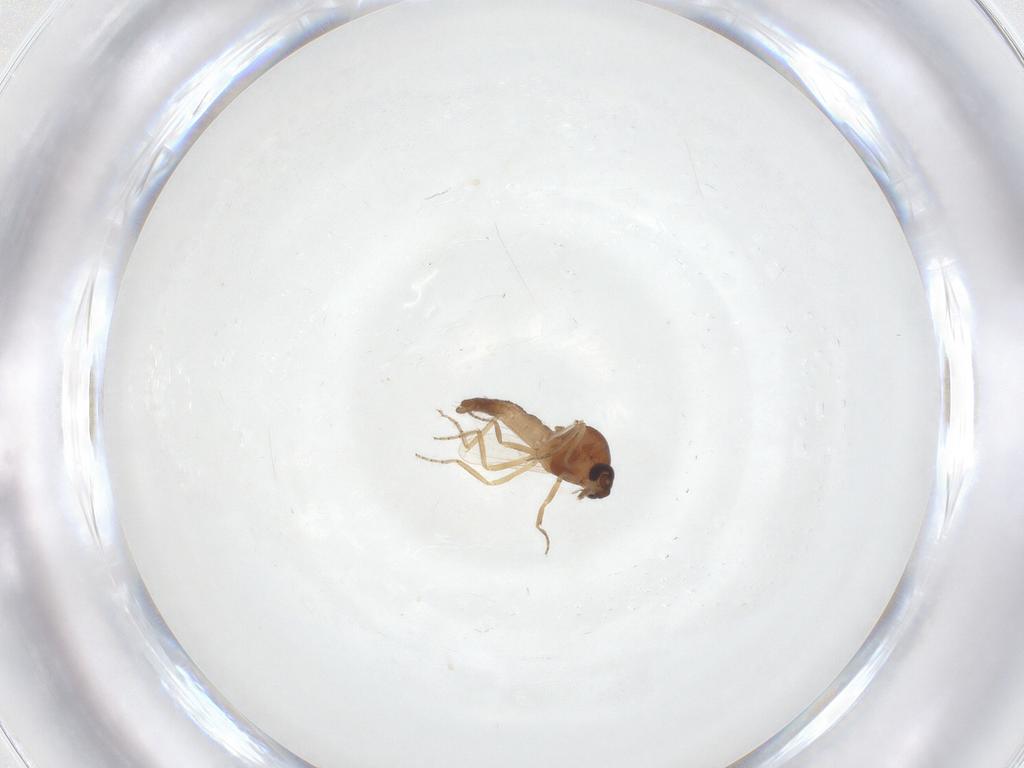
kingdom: Animalia
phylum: Arthropoda
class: Insecta
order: Diptera
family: Ceratopogonidae
